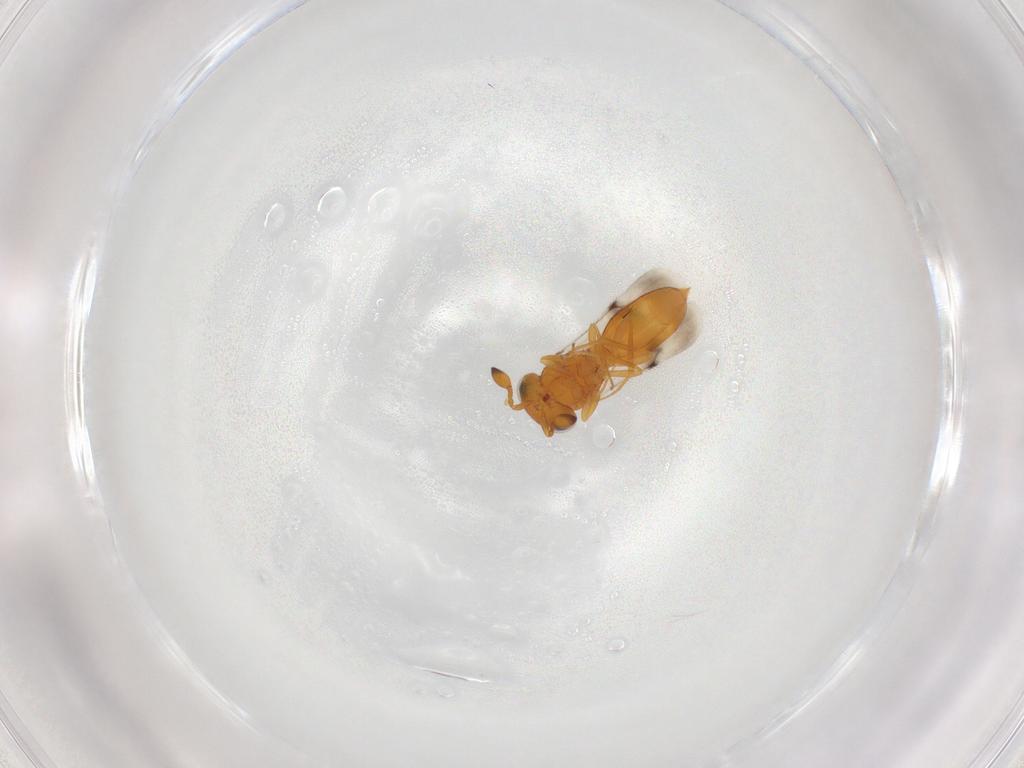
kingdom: Animalia
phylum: Arthropoda
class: Insecta
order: Hymenoptera
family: Scelionidae
